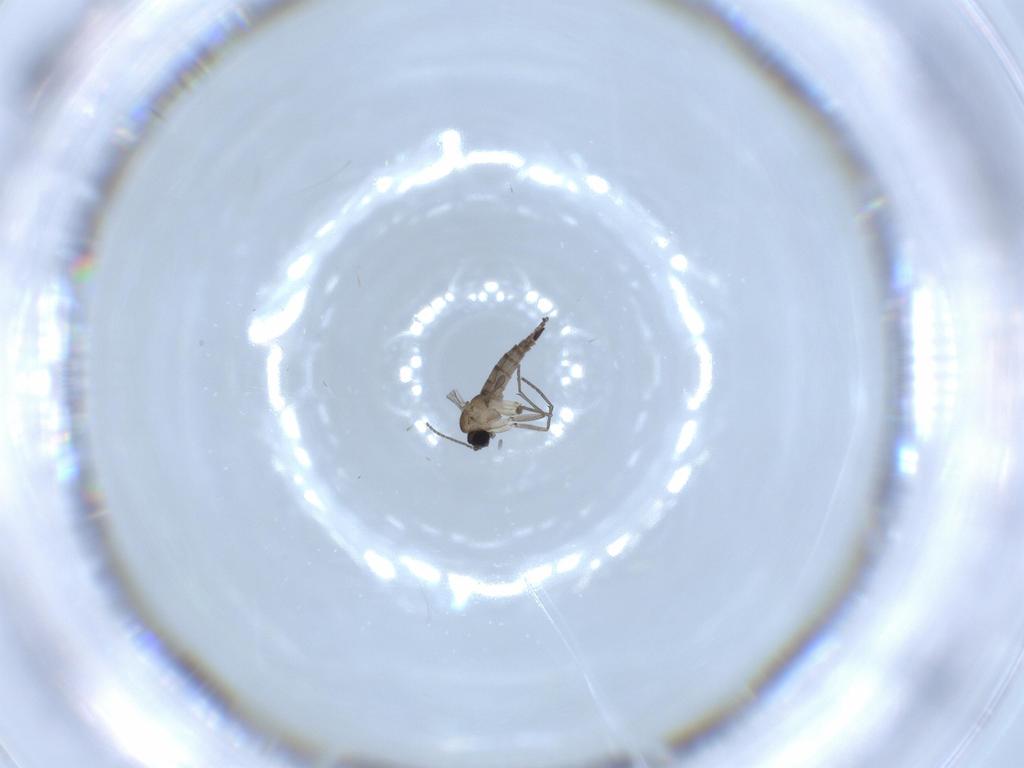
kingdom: Animalia
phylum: Arthropoda
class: Insecta
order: Diptera
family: Sciaridae
